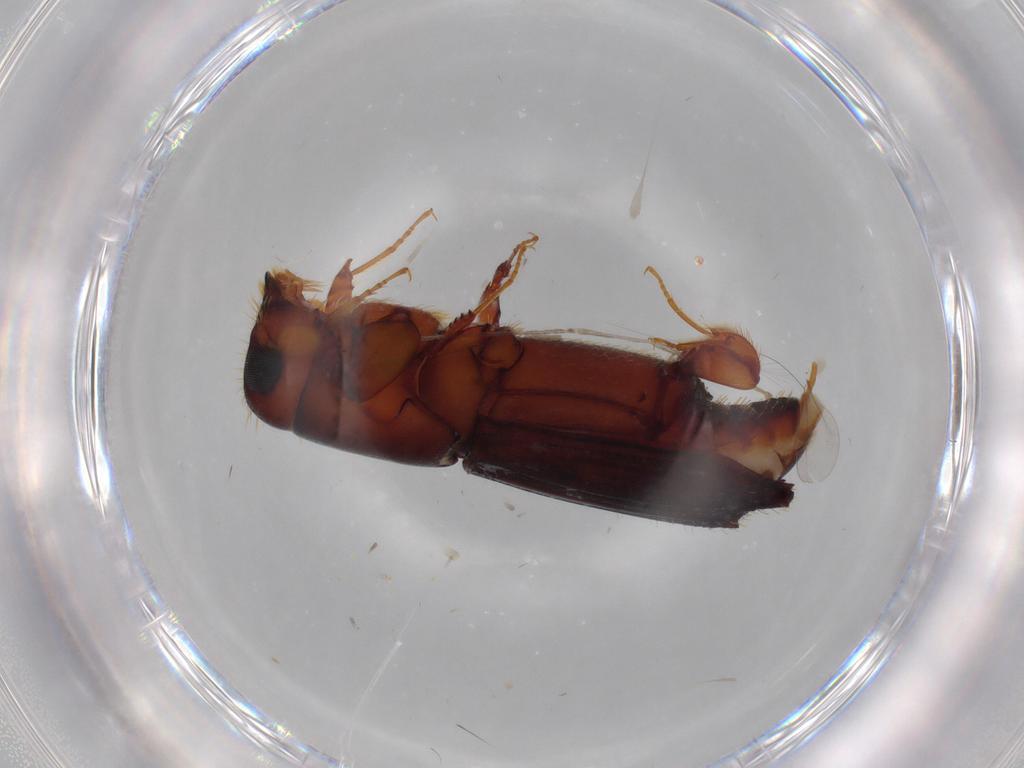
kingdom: Animalia
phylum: Arthropoda
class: Insecta
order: Coleoptera
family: Curculionidae
